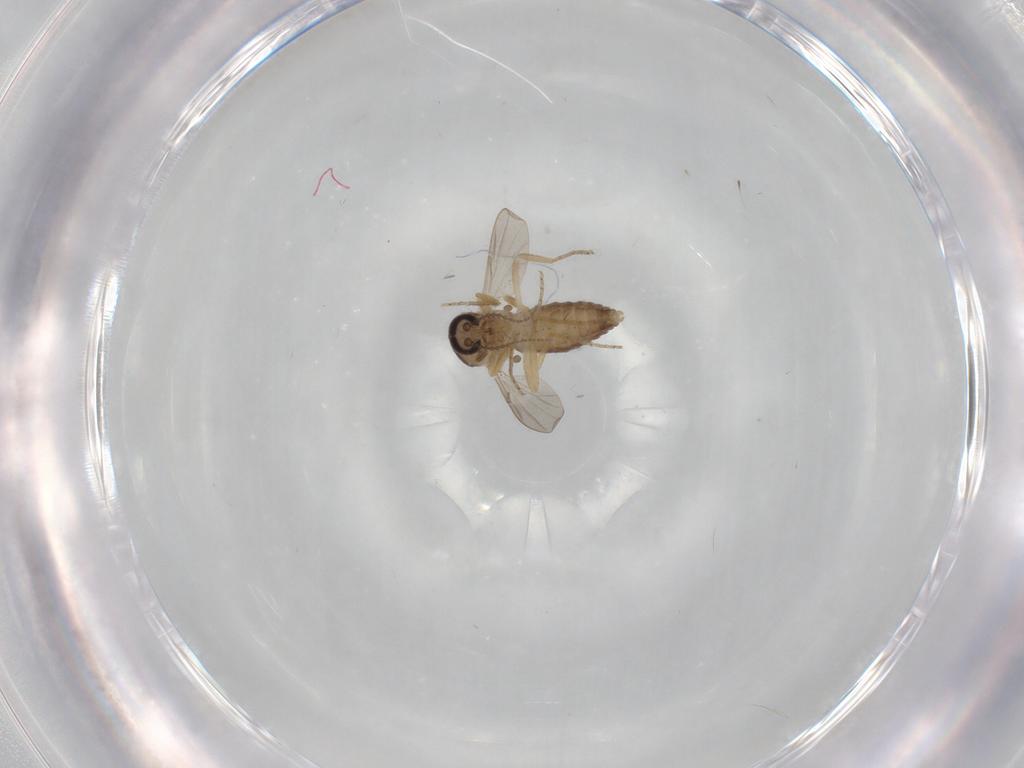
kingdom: Animalia
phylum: Arthropoda
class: Insecta
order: Diptera
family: Ceratopogonidae
